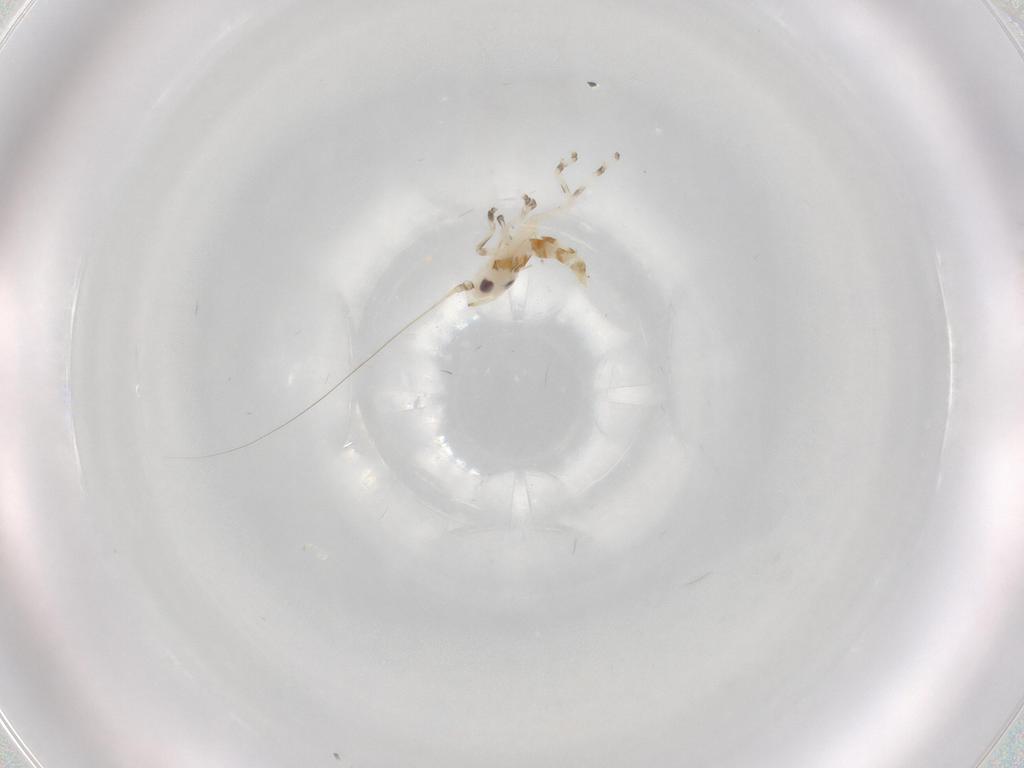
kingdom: Animalia
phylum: Arthropoda
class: Insecta
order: Hemiptera
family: Cicadellidae
